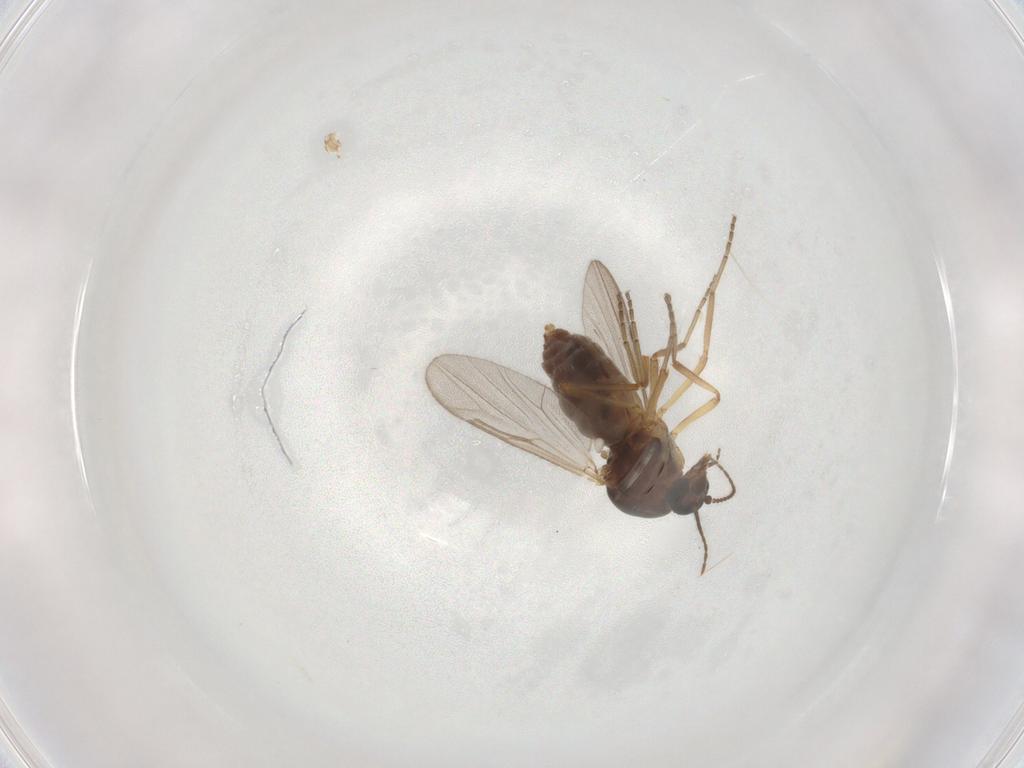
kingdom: Animalia
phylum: Arthropoda
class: Insecta
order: Diptera
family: Ceratopogonidae
